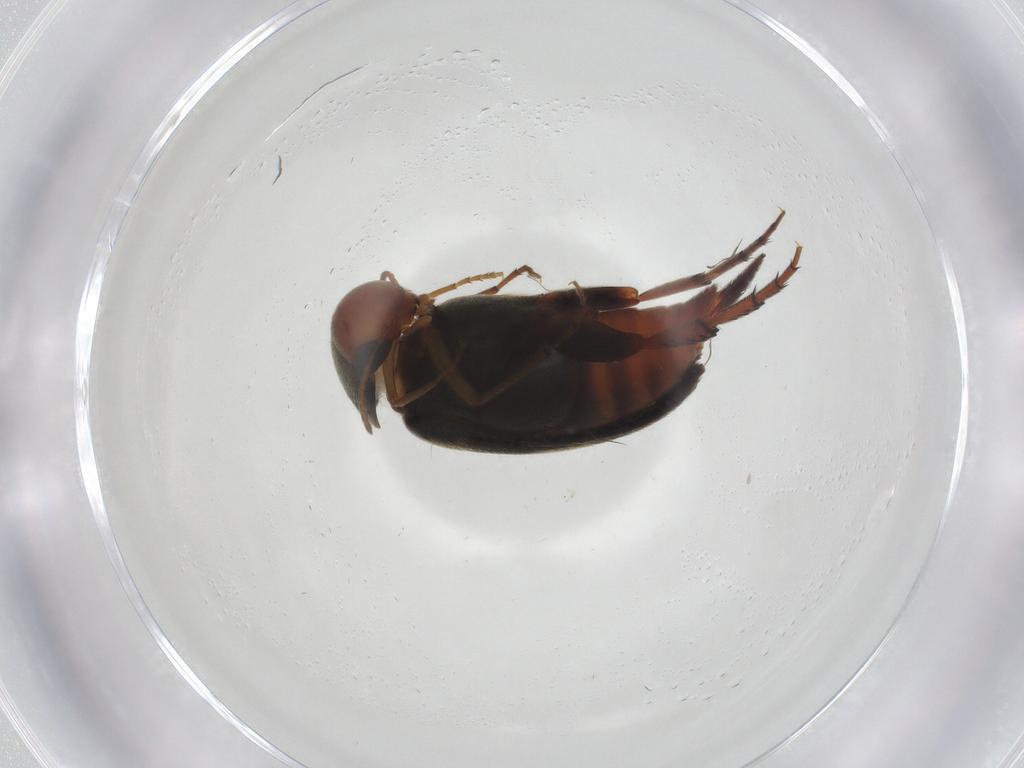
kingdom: Animalia
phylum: Arthropoda
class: Insecta
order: Coleoptera
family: Mordellidae
